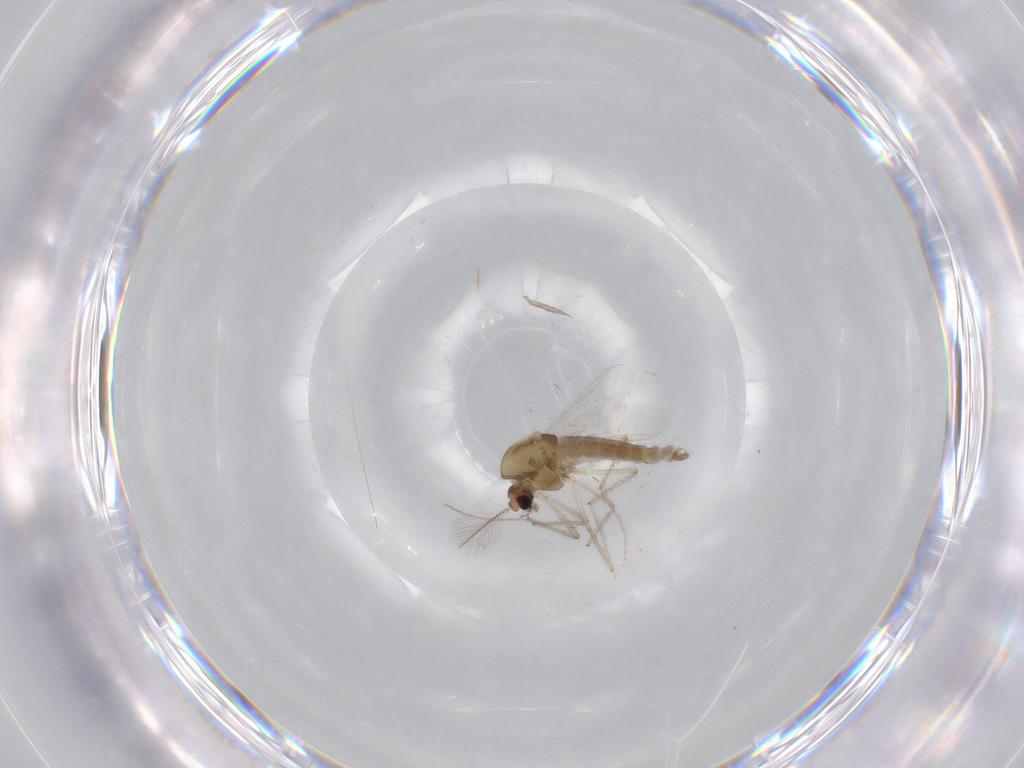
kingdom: Animalia
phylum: Arthropoda
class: Insecta
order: Diptera
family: Chironomidae
